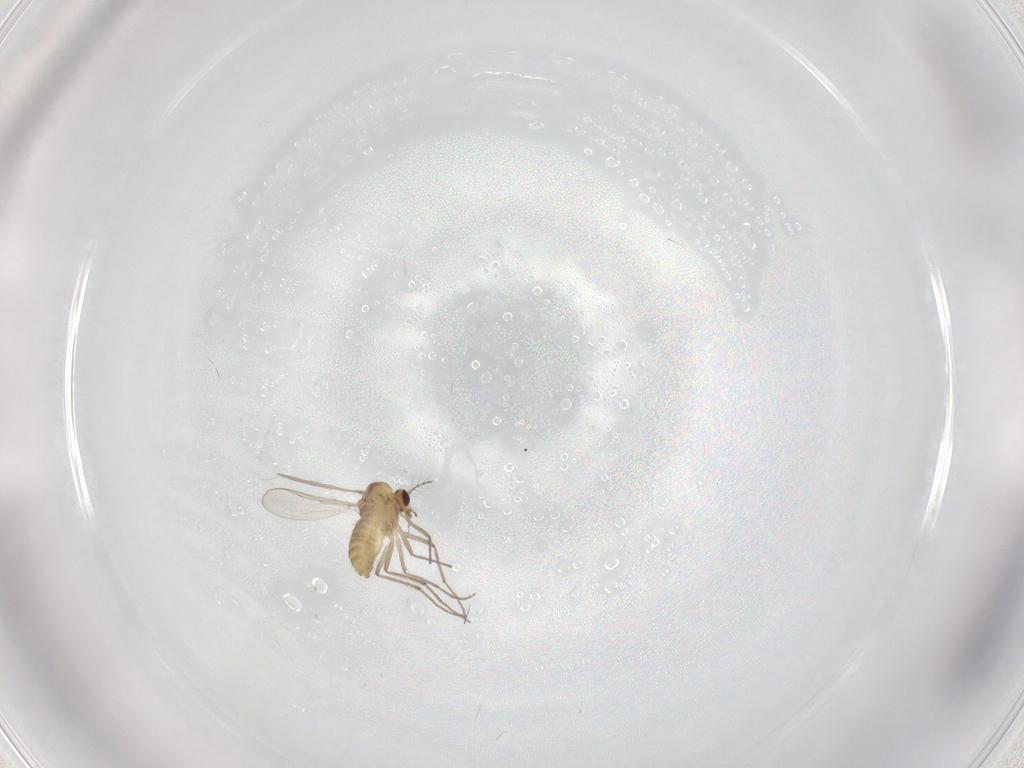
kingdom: Animalia
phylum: Arthropoda
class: Insecta
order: Diptera
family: Chironomidae
